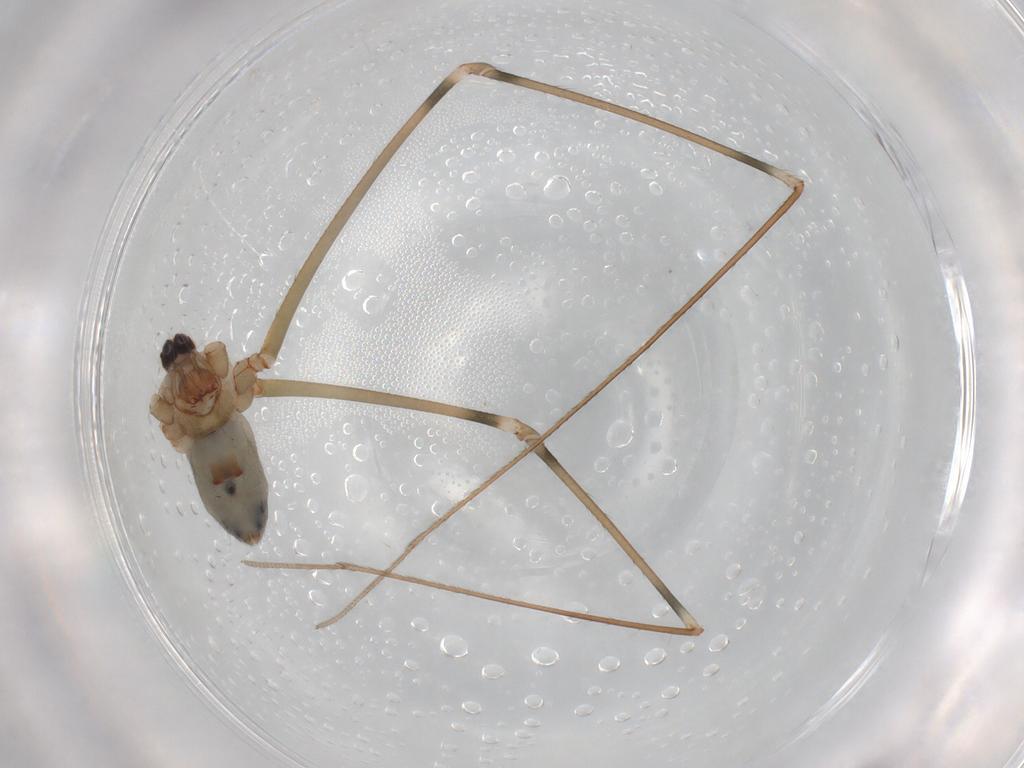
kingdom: Animalia
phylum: Arthropoda
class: Arachnida
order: Araneae
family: Pholcidae
